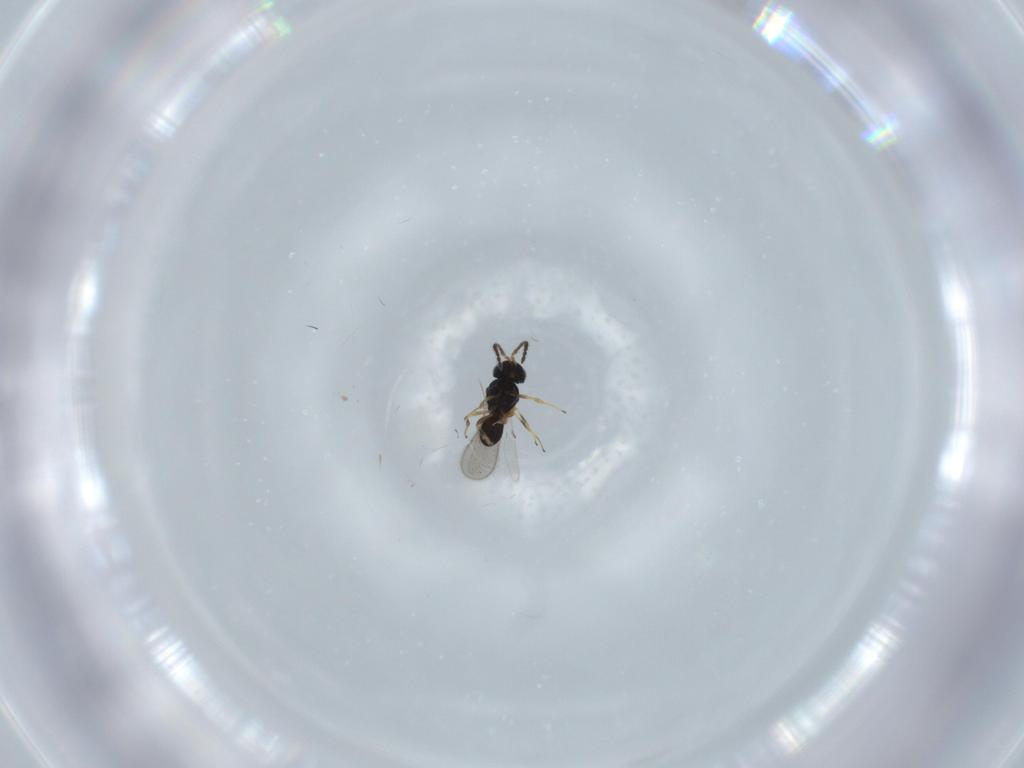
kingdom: Animalia
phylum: Arthropoda
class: Insecta
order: Hymenoptera
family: Scelionidae
